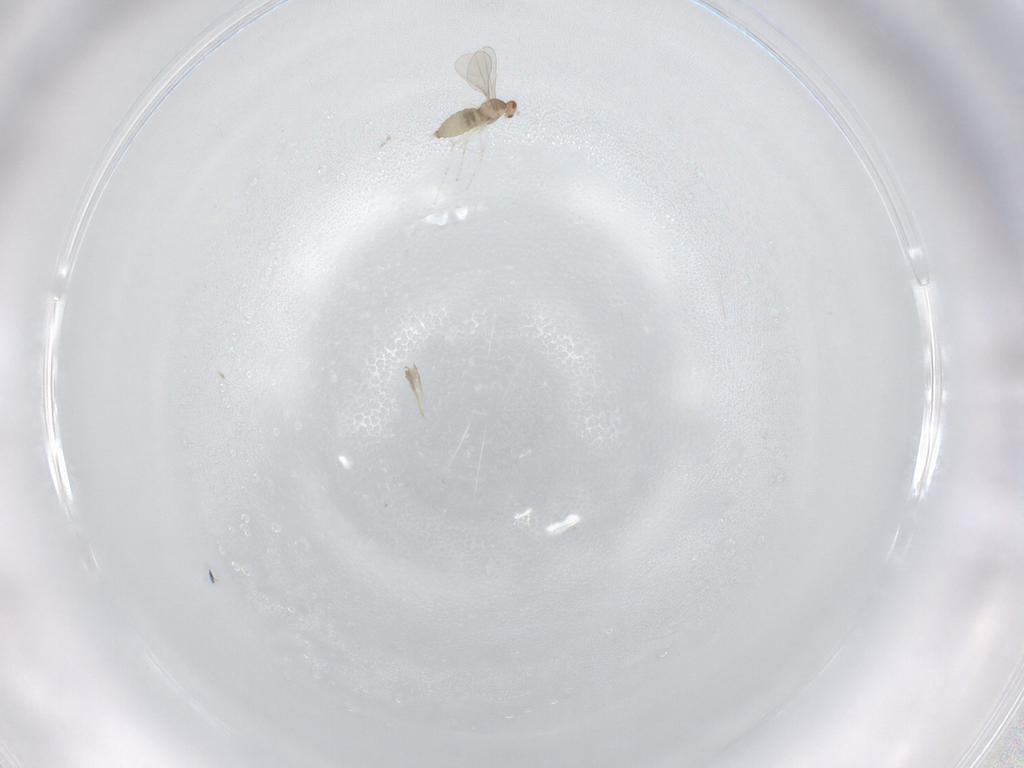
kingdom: Animalia
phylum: Arthropoda
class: Insecta
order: Diptera
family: Cecidomyiidae
